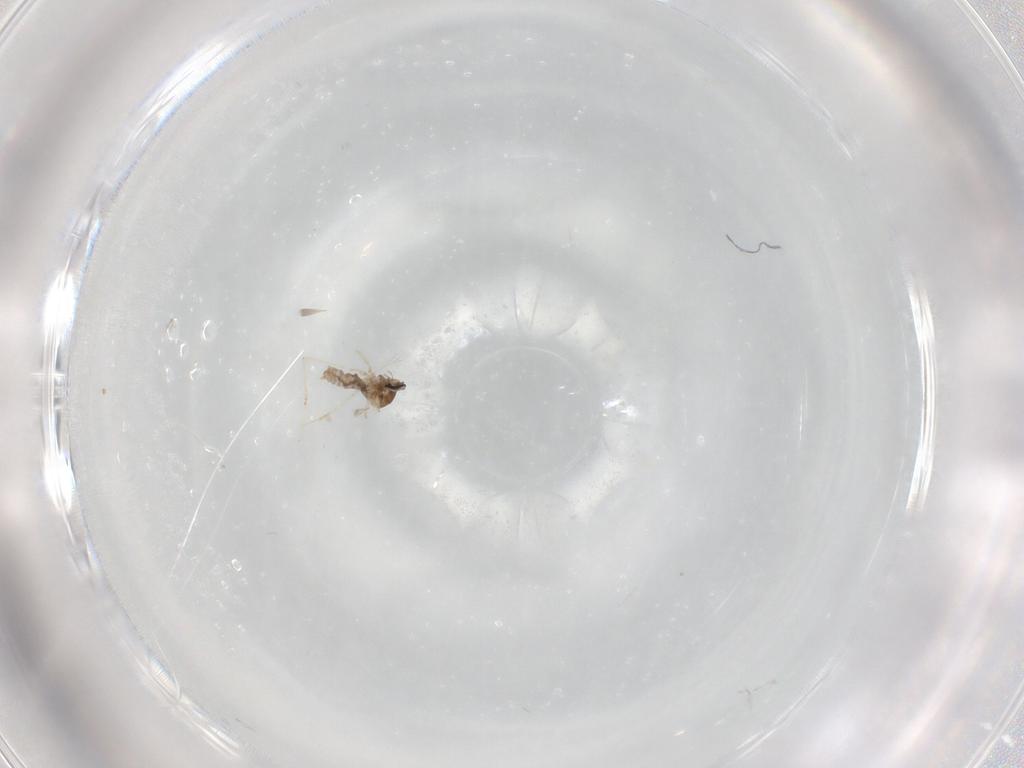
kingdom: Animalia
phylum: Arthropoda
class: Insecta
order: Diptera
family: Cecidomyiidae
